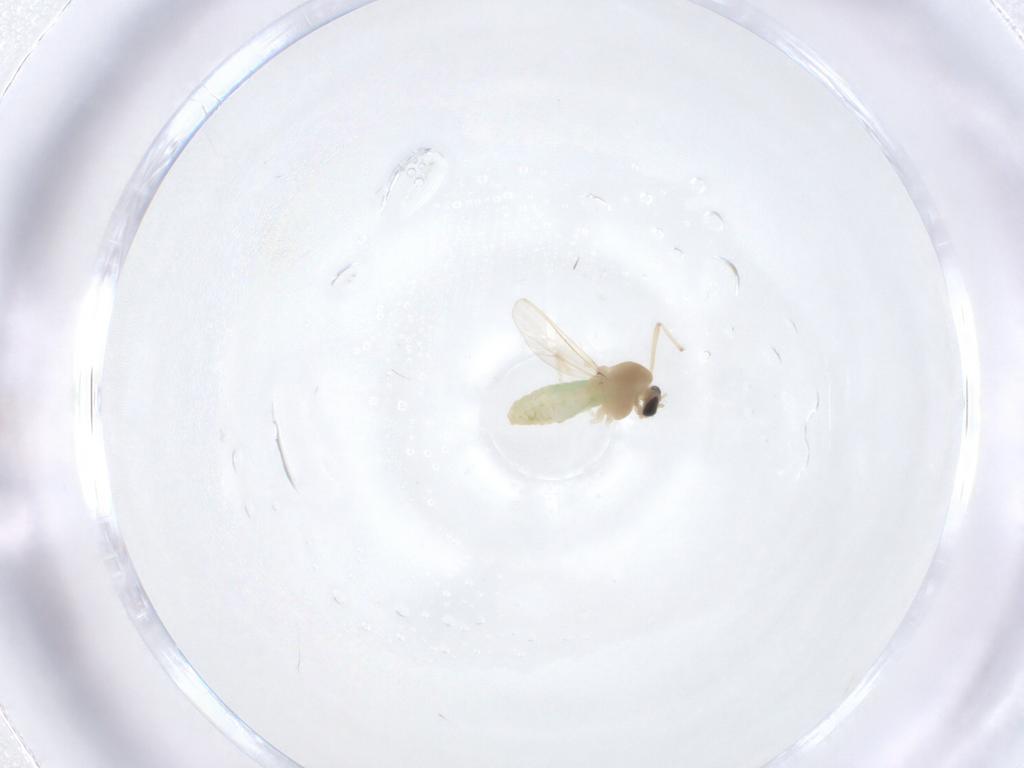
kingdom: Animalia
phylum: Arthropoda
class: Insecta
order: Diptera
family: Chironomidae
